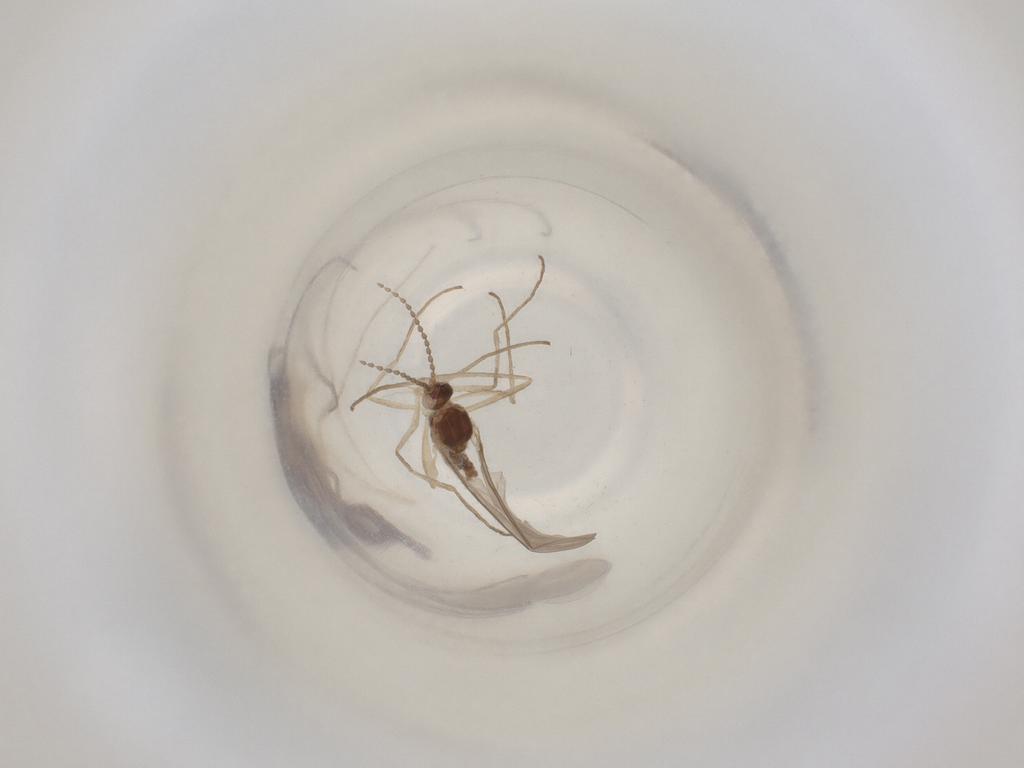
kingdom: Animalia
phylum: Arthropoda
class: Insecta
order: Diptera
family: Cecidomyiidae
